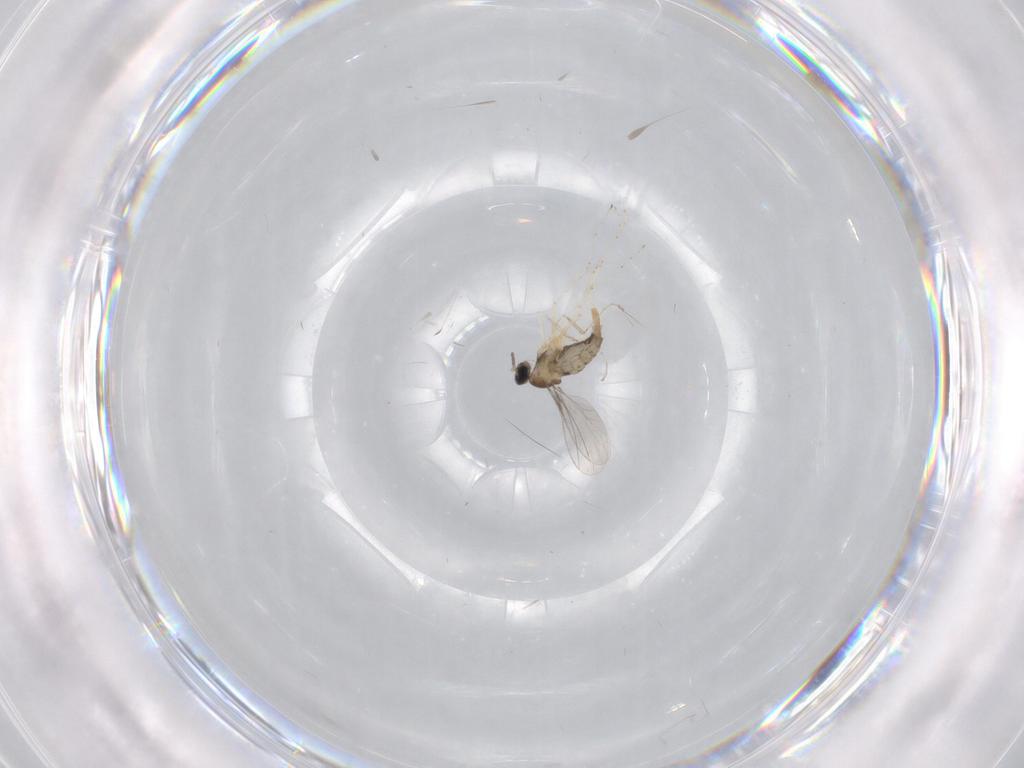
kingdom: Animalia
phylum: Arthropoda
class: Insecta
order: Diptera
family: Cecidomyiidae
